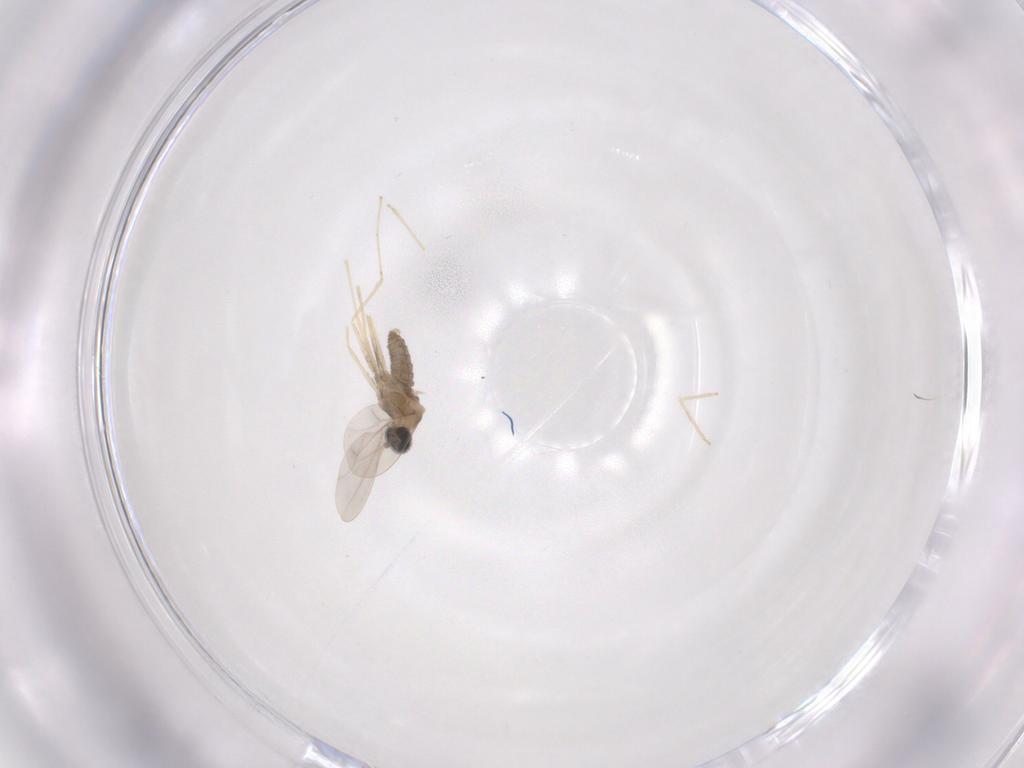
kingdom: Animalia
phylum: Arthropoda
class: Insecta
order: Diptera
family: Cecidomyiidae
